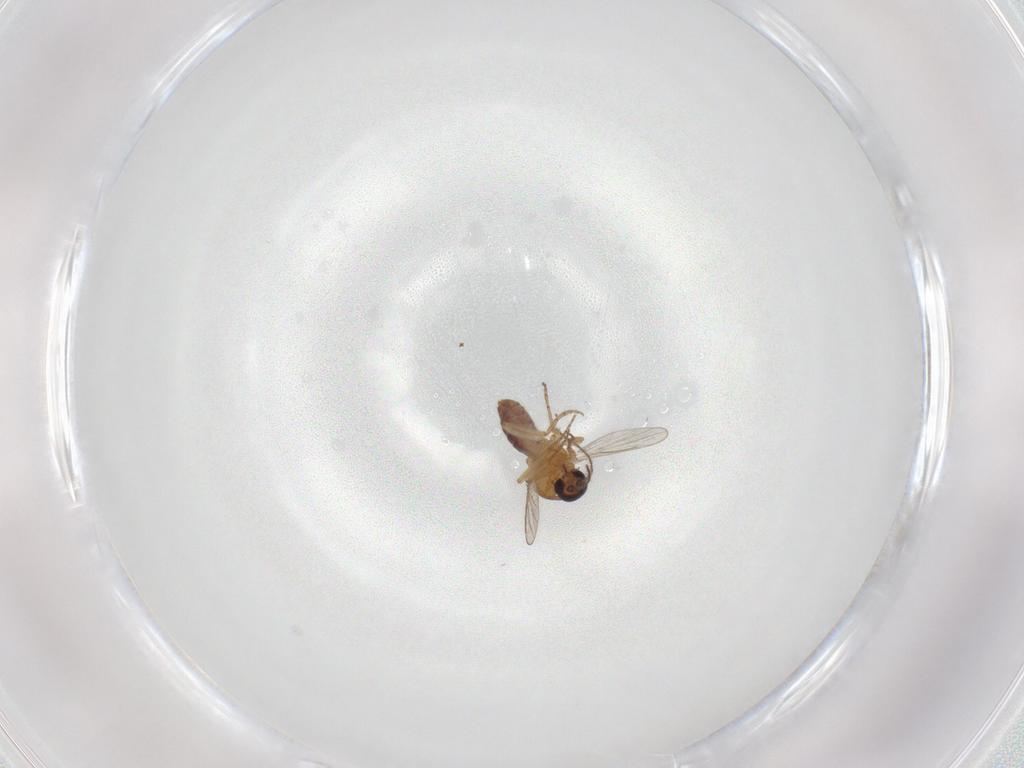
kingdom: Animalia
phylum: Arthropoda
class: Insecta
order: Diptera
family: Ceratopogonidae
